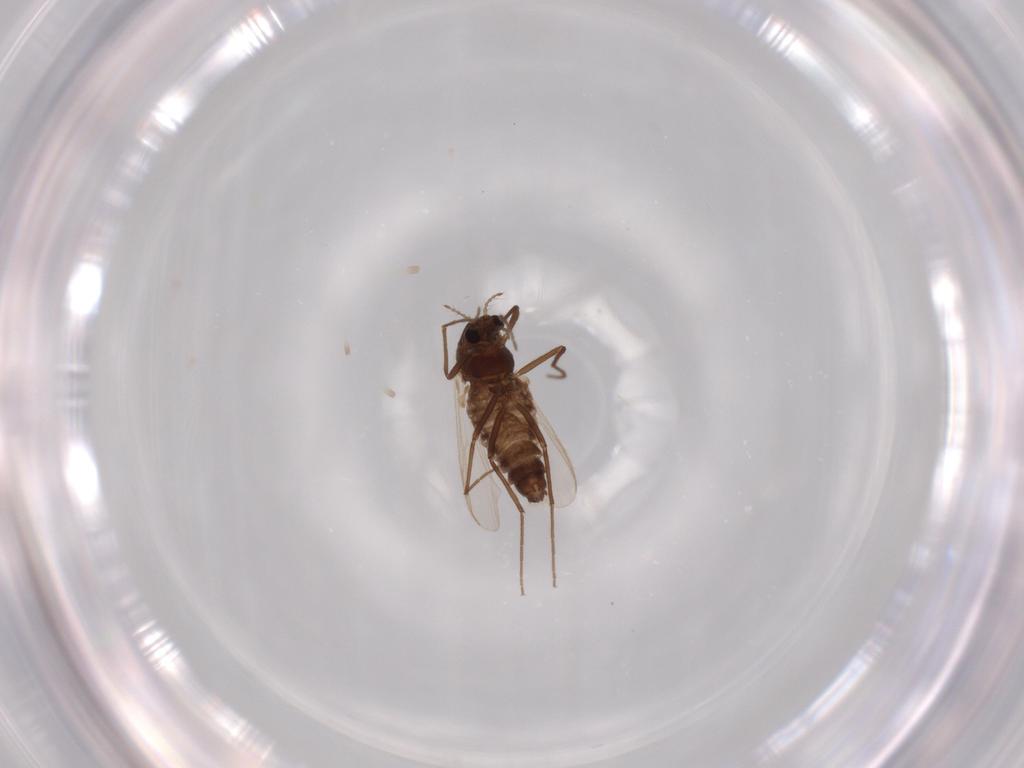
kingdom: Animalia
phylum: Arthropoda
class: Insecta
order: Diptera
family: Chironomidae
